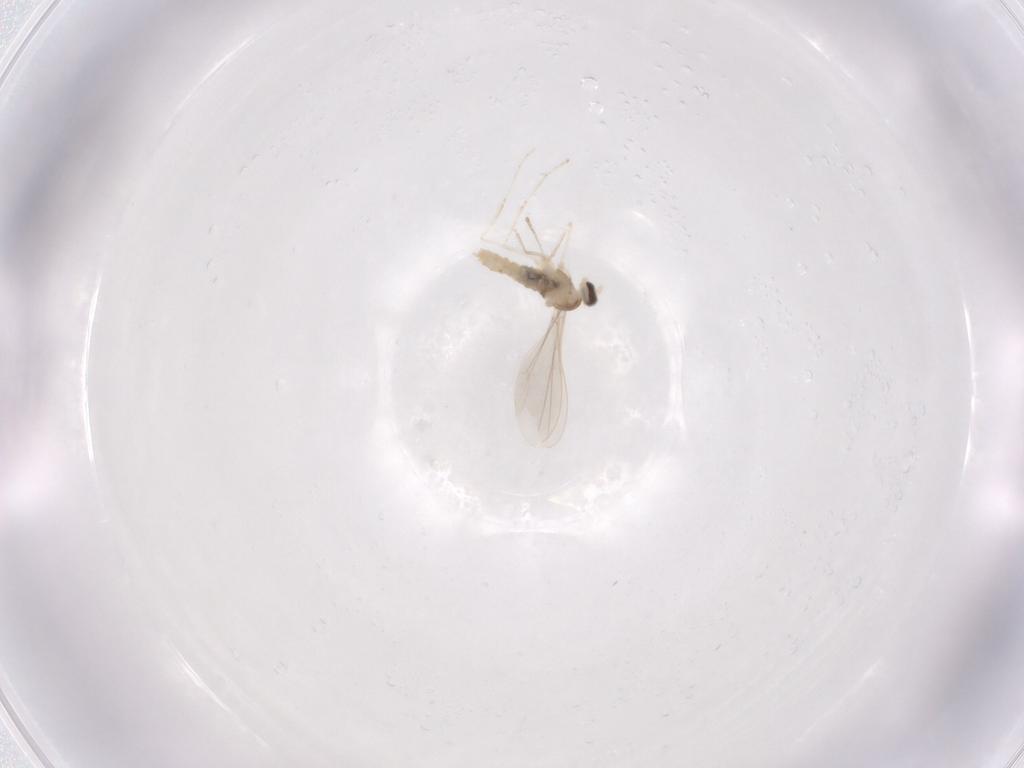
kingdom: Animalia
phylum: Arthropoda
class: Insecta
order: Diptera
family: Cecidomyiidae
